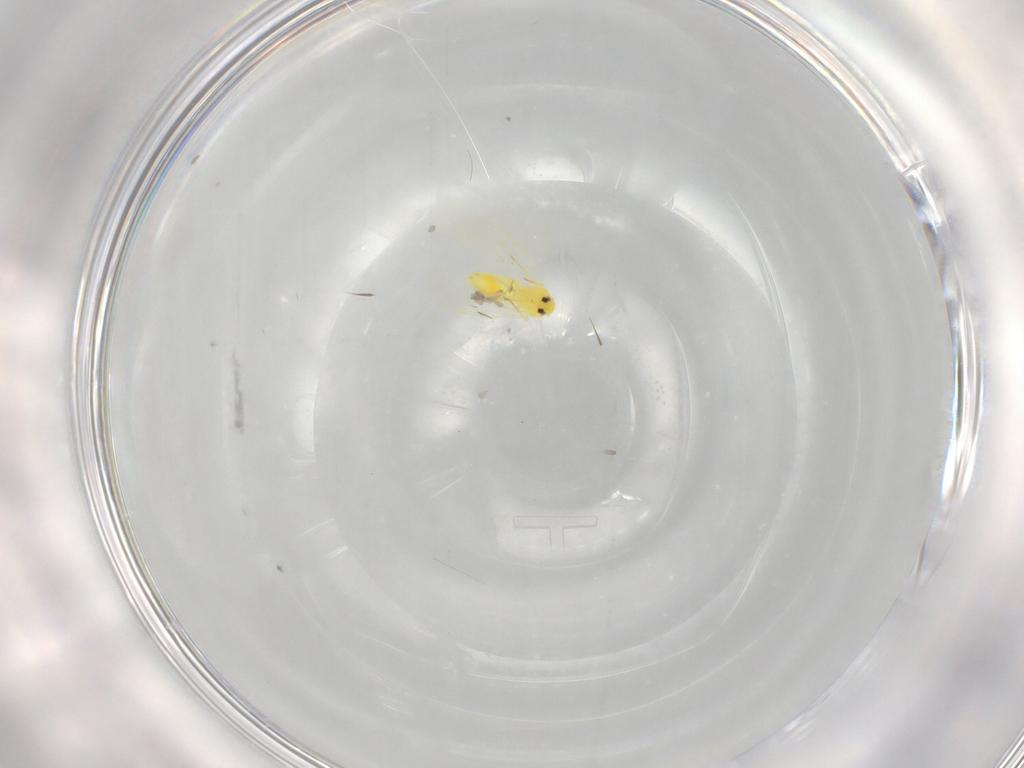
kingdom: Animalia
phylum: Arthropoda
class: Insecta
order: Hemiptera
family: Aleyrodidae
